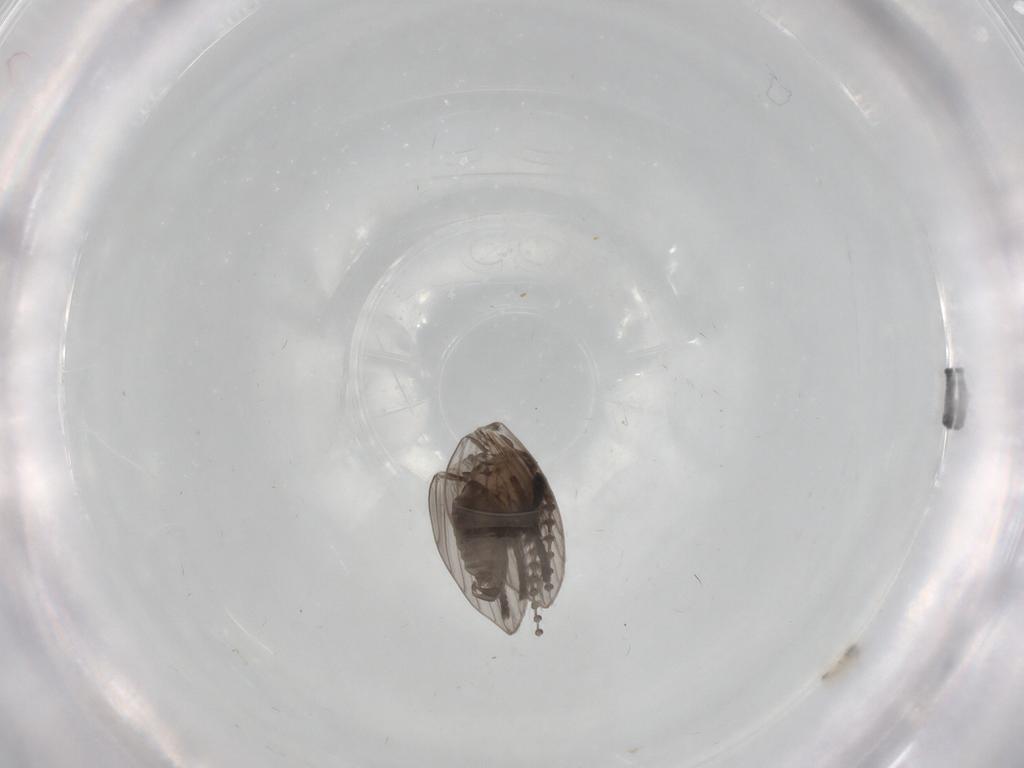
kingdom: Animalia
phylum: Arthropoda
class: Insecta
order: Diptera
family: Psychodidae
